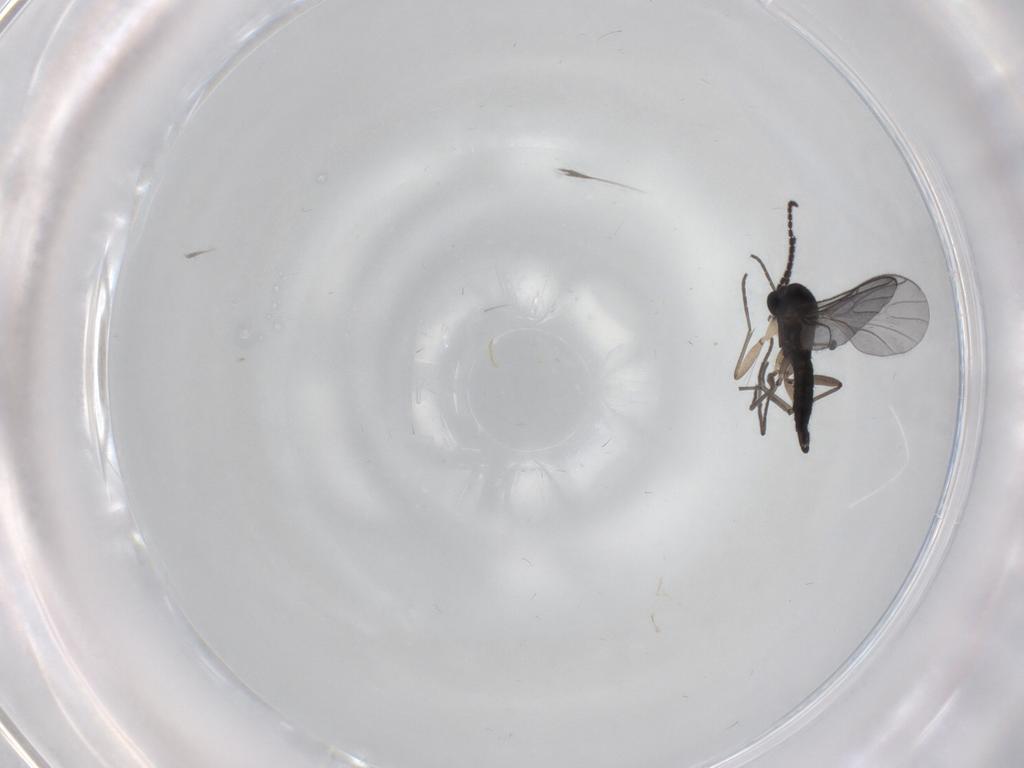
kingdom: Animalia
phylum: Arthropoda
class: Insecta
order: Diptera
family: Sciaridae
